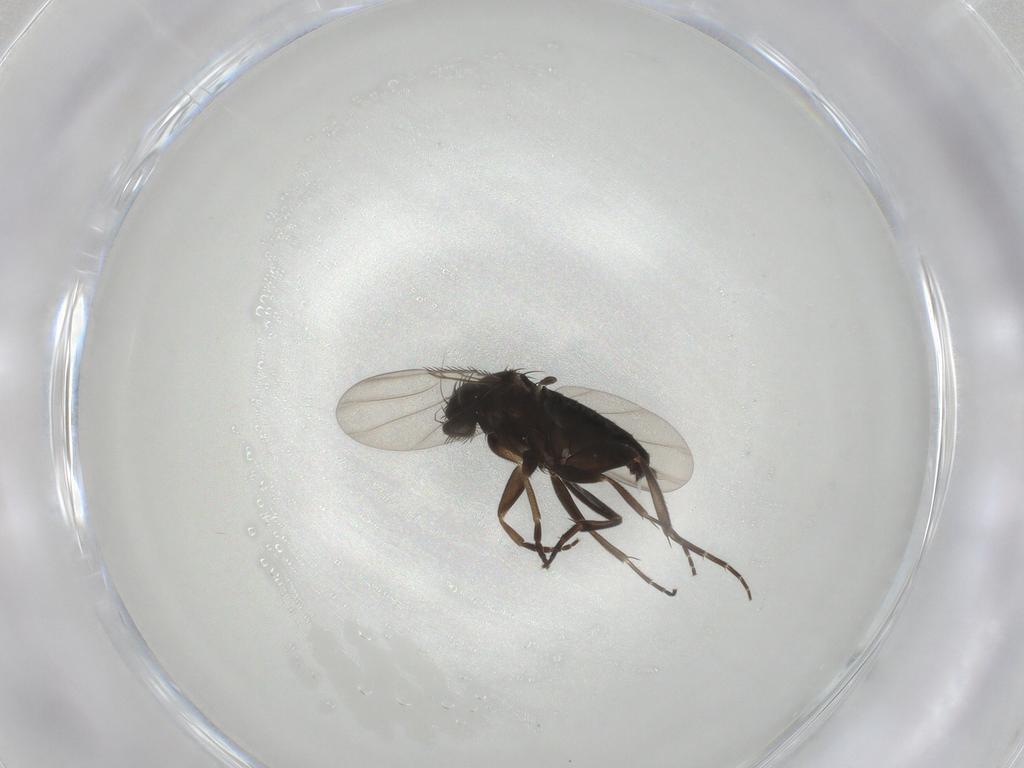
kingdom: Animalia
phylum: Arthropoda
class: Insecta
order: Diptera
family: Phoridae
